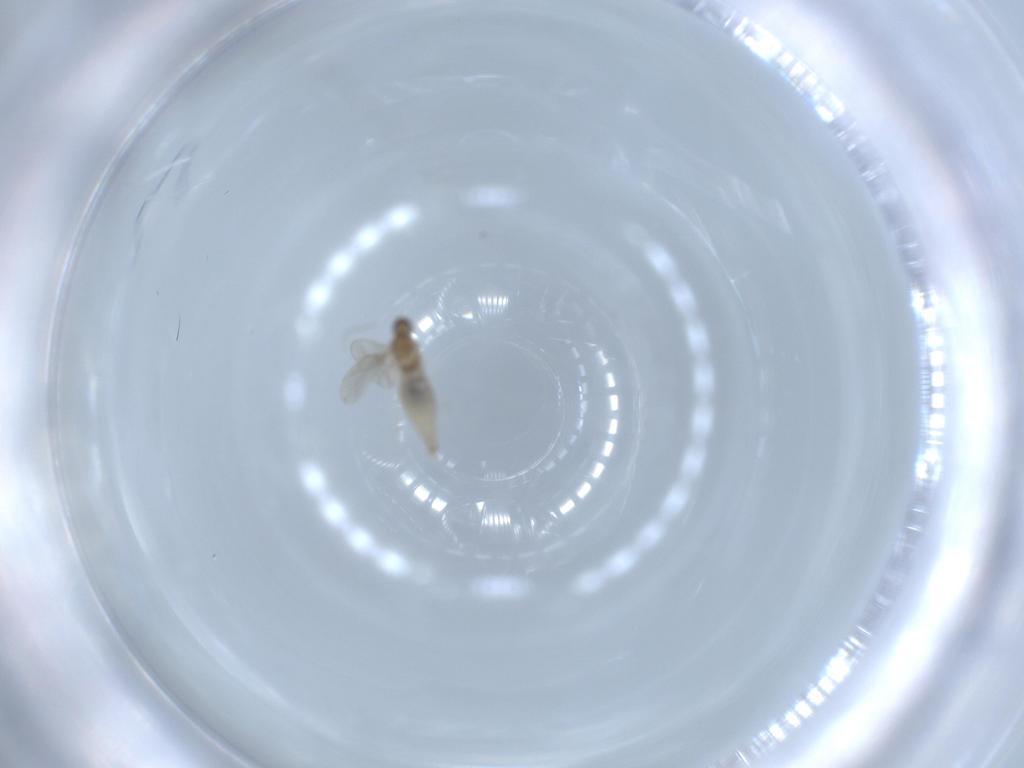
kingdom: Animalia
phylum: Arthropoda
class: Insecta
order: Diptera
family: Cecidomyiidae
